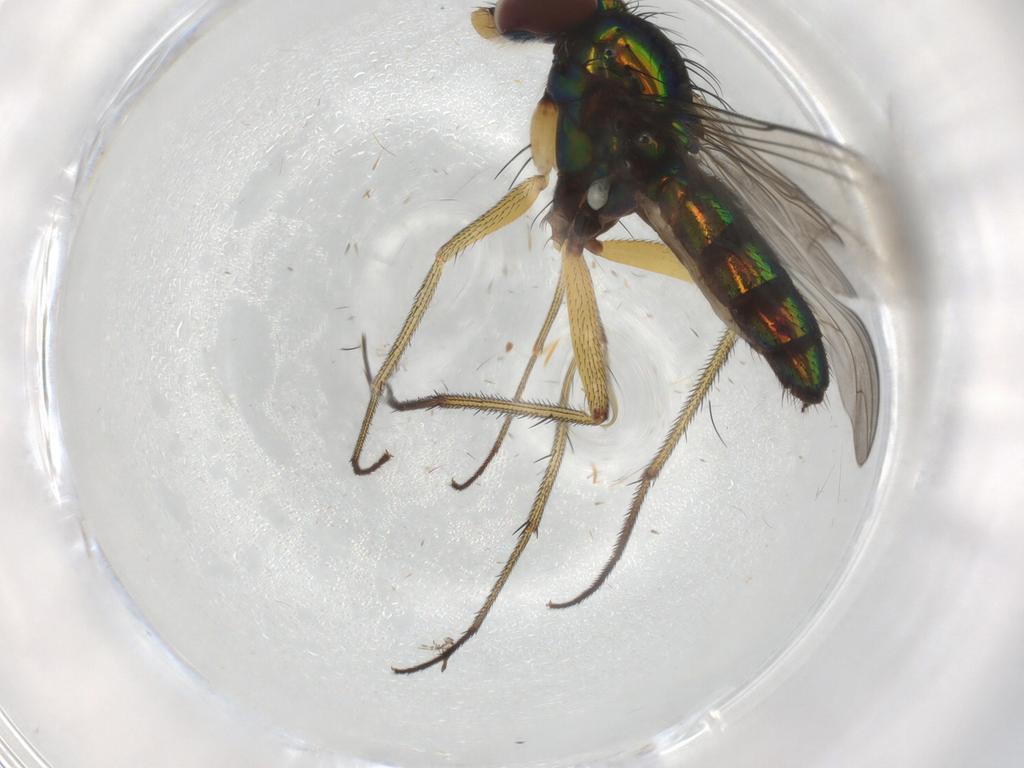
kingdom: Animalia
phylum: Arthropoda
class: Insecta
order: Diptera
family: Dolichopodidae
